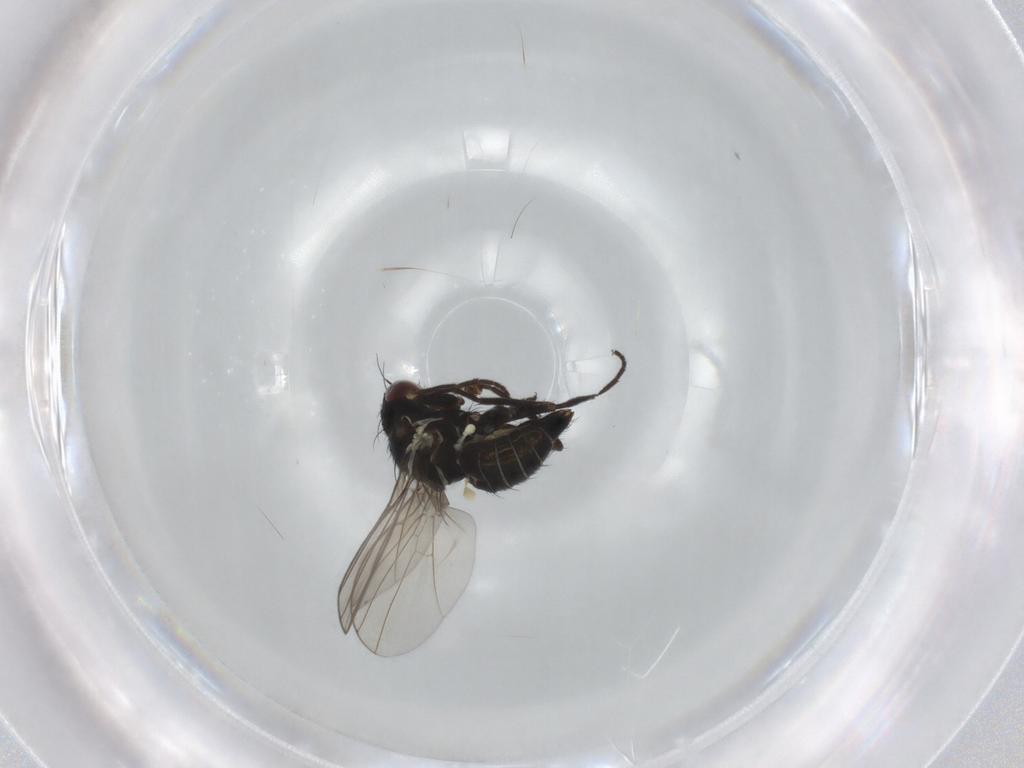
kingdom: Animalia
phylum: Arthropoda
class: Insecta
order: Diptera
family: Agromyzidae
